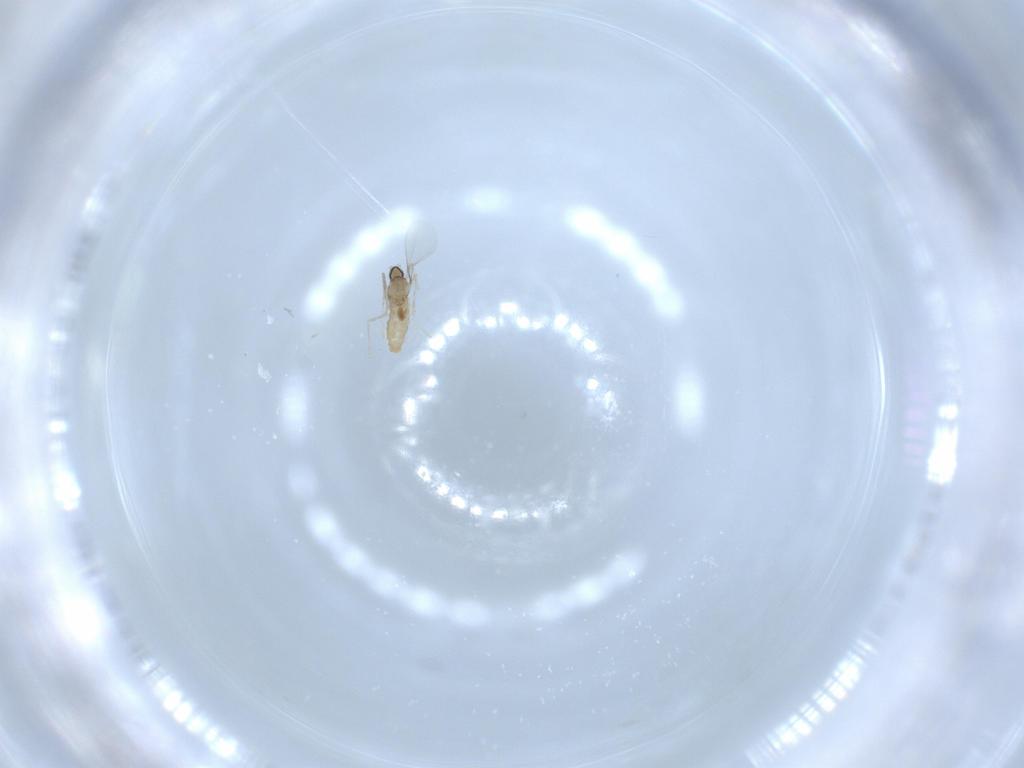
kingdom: Animalia
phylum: Arthropoda
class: Insecta
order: Diptera
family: Cecidomyiidae
